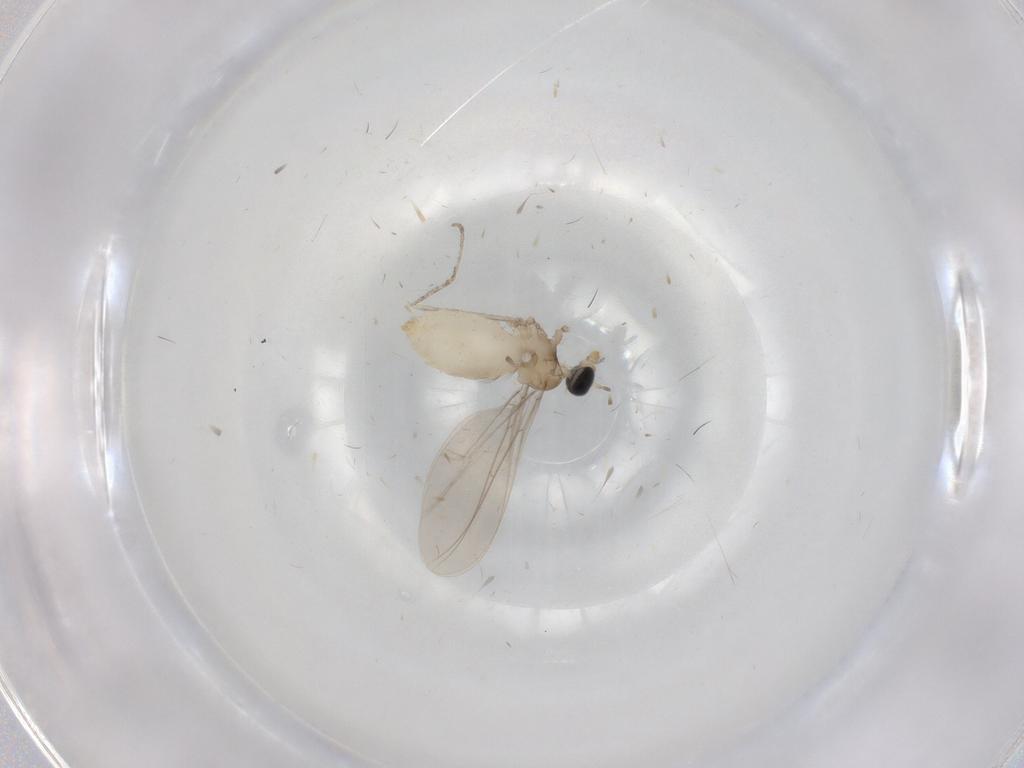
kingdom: Animalia
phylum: Arthropoda
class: Insecta
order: Diptera
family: Cecidomyiidae
